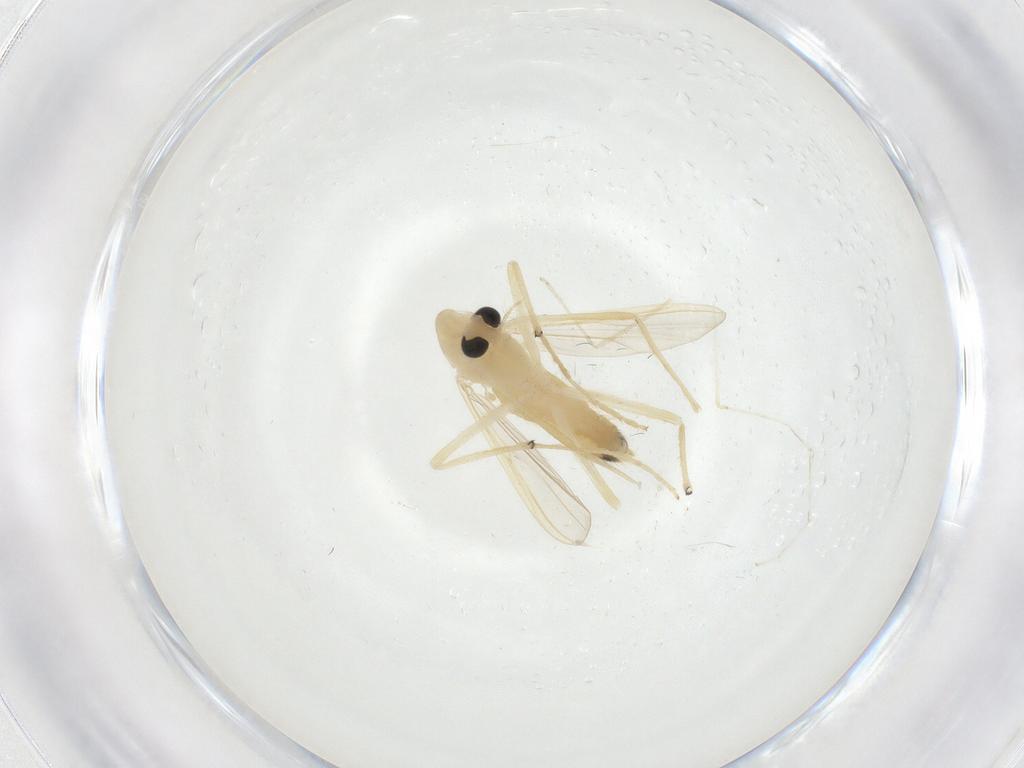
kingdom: Animalia
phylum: Arthropoda
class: Insecta
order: Diptera
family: Chironomidae
